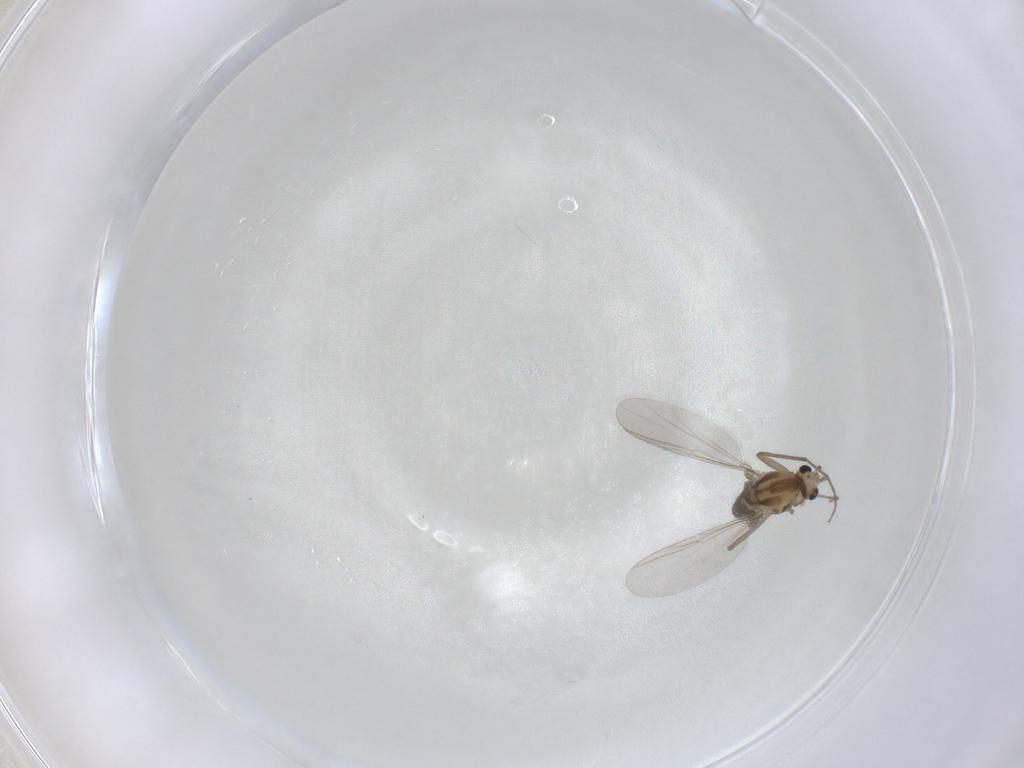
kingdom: Animalia
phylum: Arthropoda
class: Insecta
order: Diptera
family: Chironomidae
